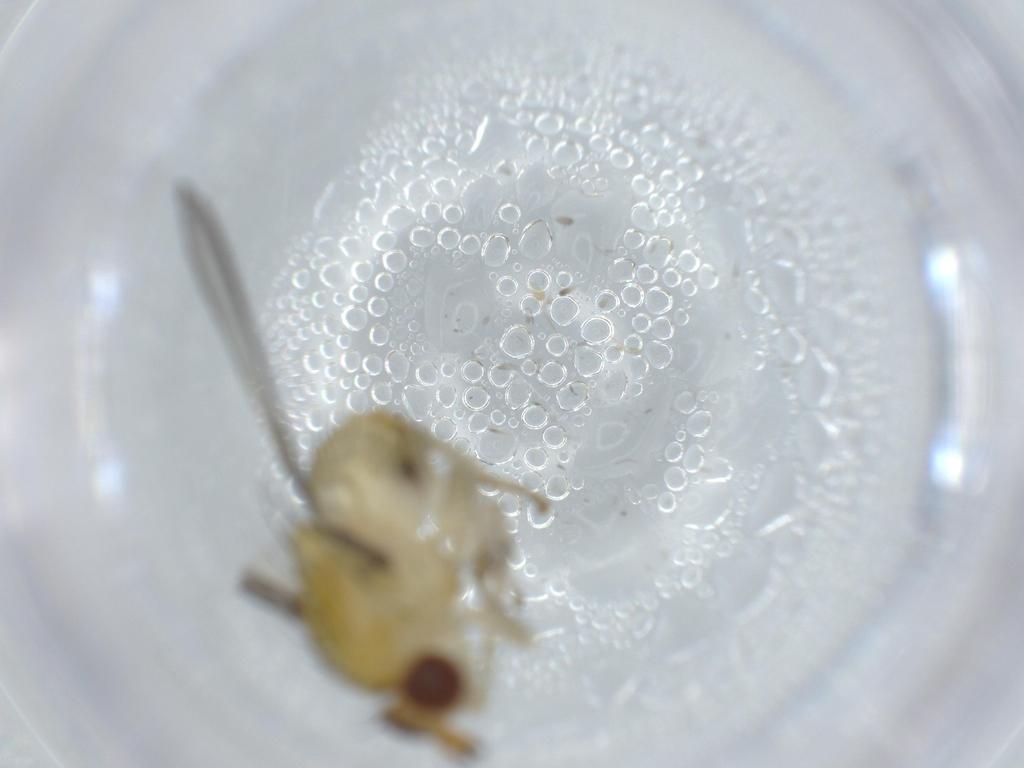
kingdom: Animalia
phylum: Arthropoda
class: Insecta
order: Diptera
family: Lauxaniidae
